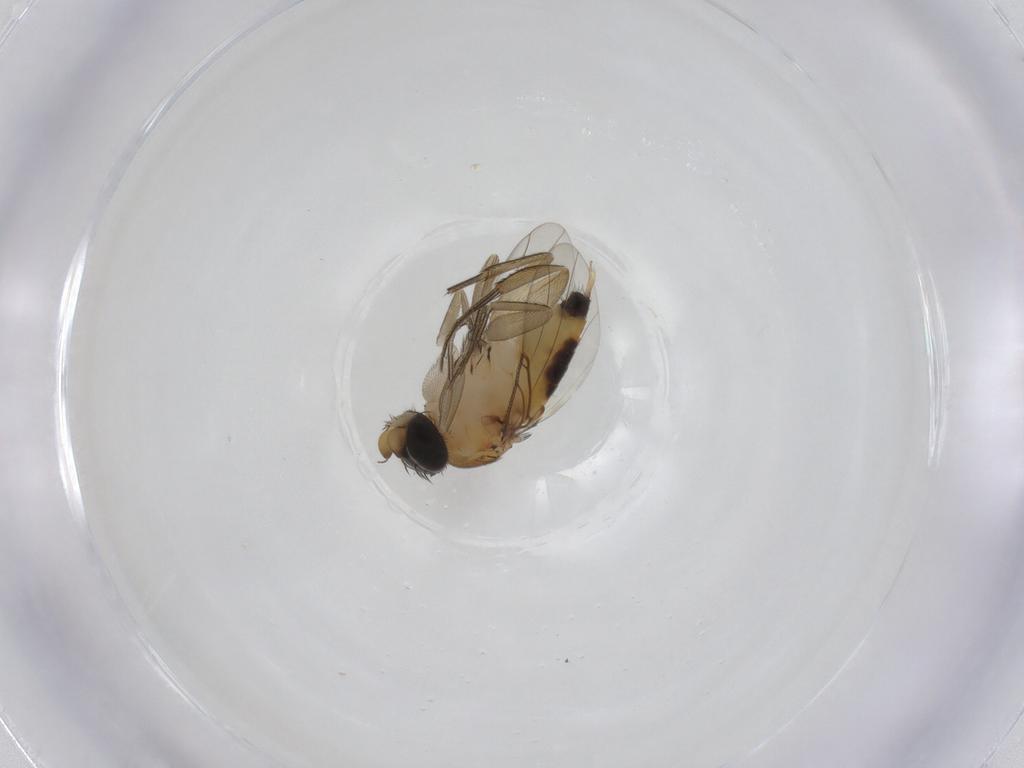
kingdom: Animalia
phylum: Arthropoda
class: Insecta
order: Diptera
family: Phoridae
